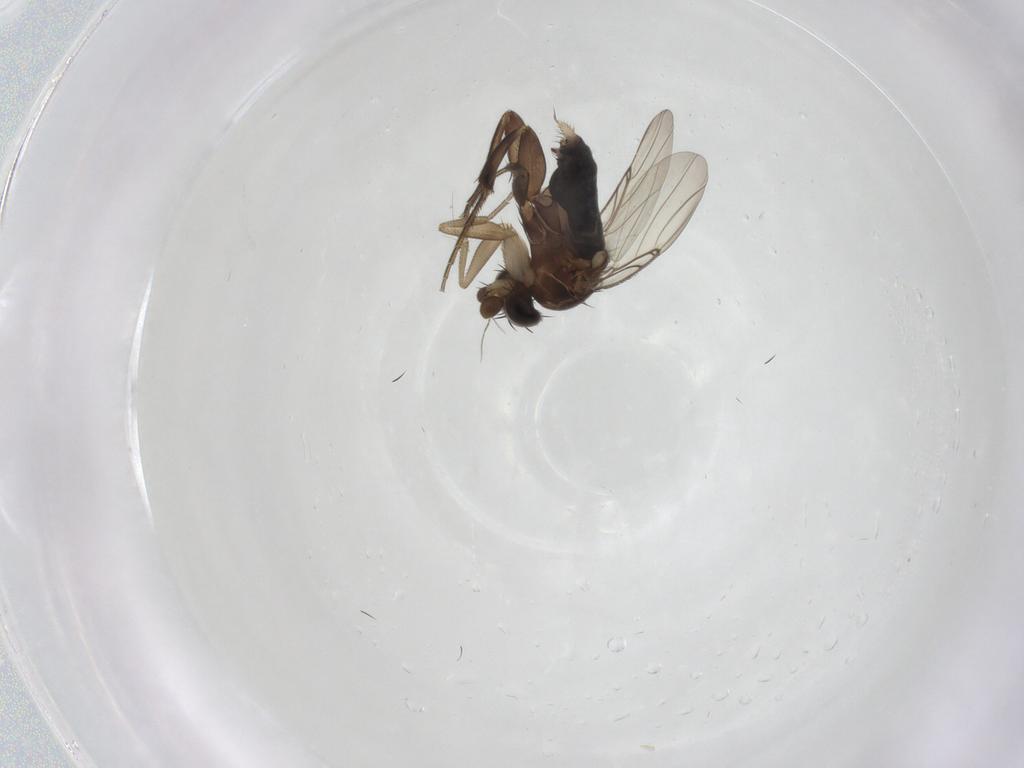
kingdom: Animalia
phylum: Arthropoda
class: Insecta
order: Diptera
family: Phoridae
